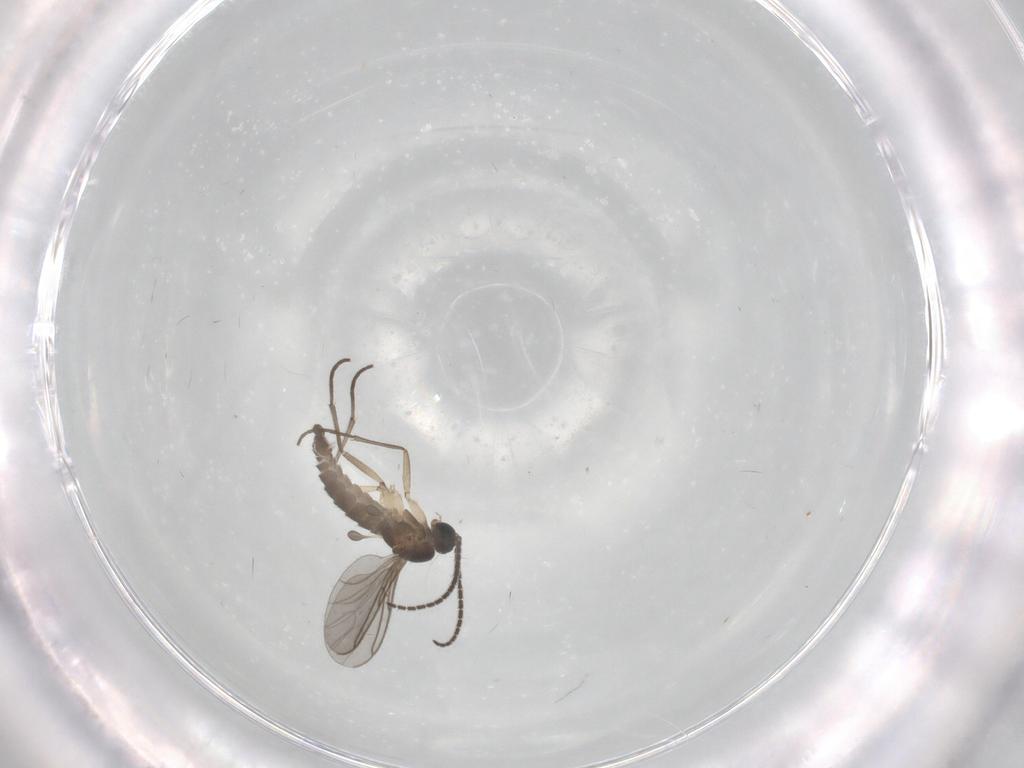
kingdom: Animalia
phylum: Arthropoda
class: Insecta
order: Diptera
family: Sciaridae
